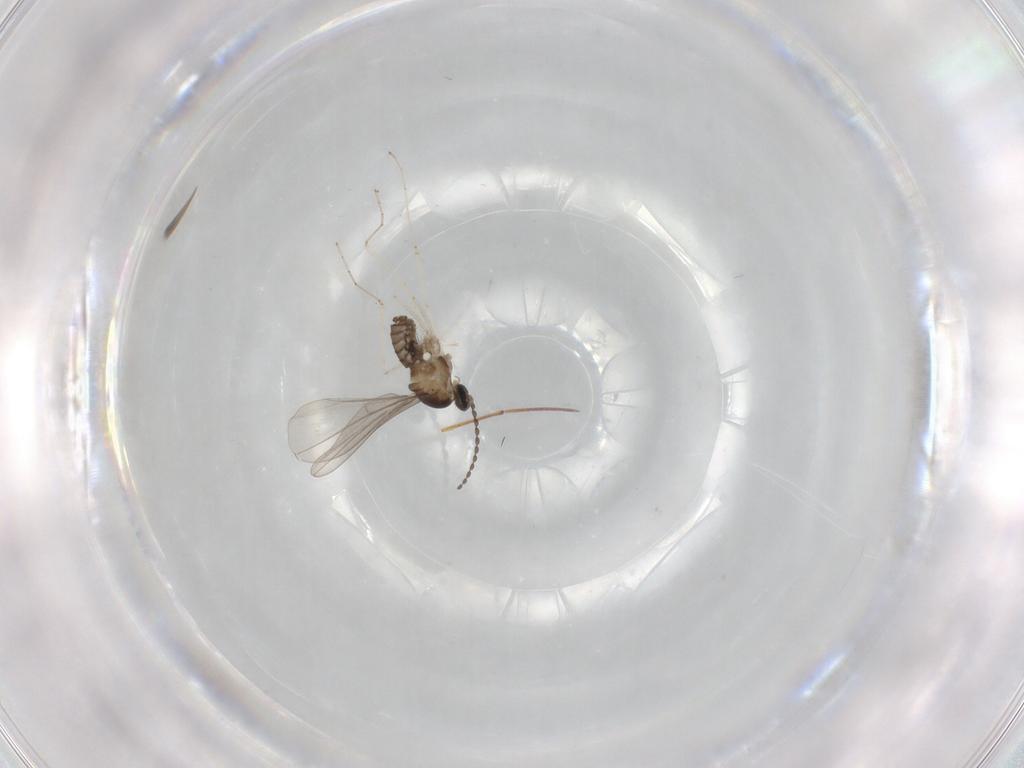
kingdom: Animalia
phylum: Arthropoda
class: Insecta
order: Diptera
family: Cecidomyiidae
